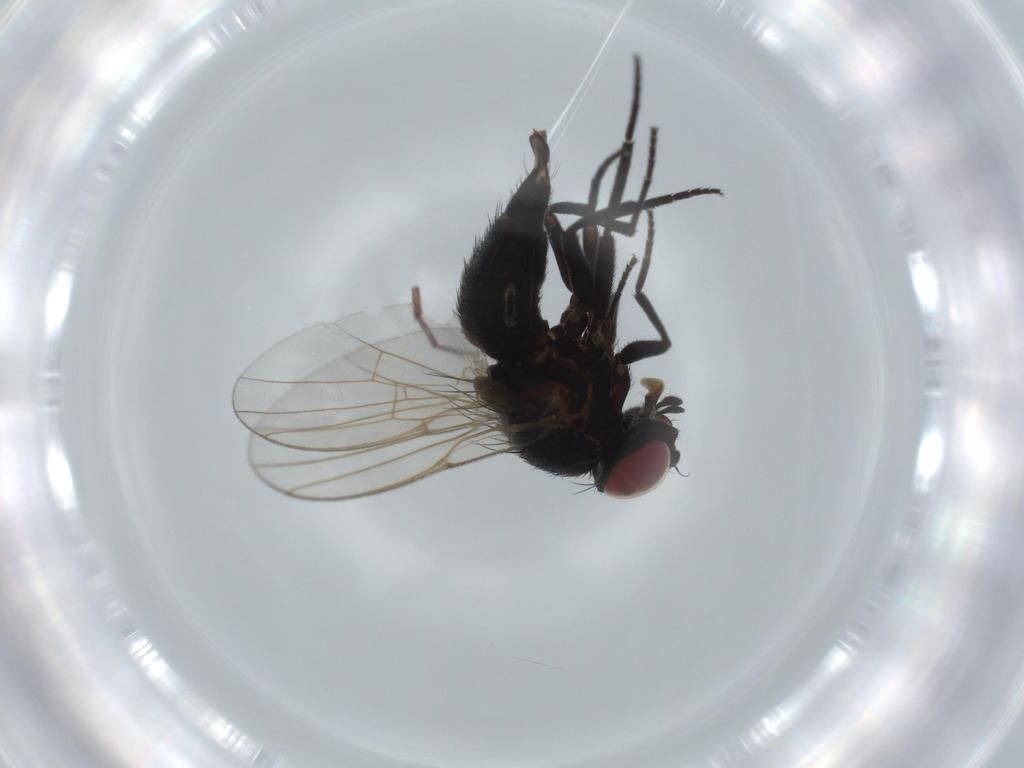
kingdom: Animalia
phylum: Arthropoda
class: Insecta
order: Diptera
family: Agromyzidae
